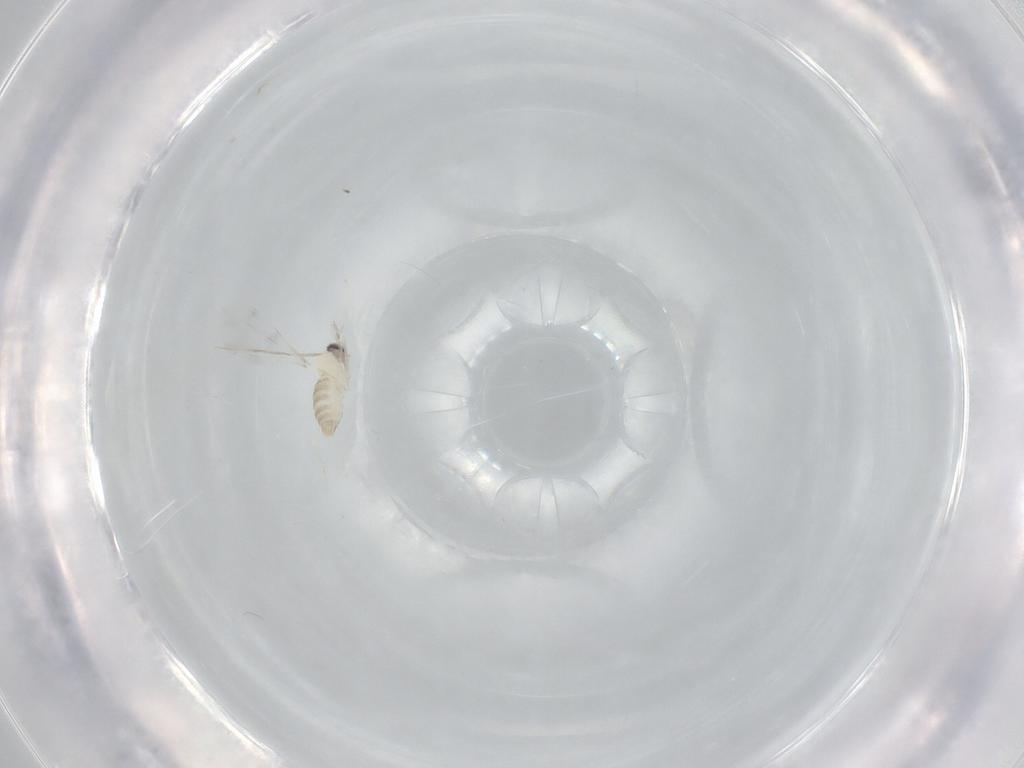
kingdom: Animalia
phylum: Arthropoda
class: Insecta
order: Diptera
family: Cecidomyiidae
